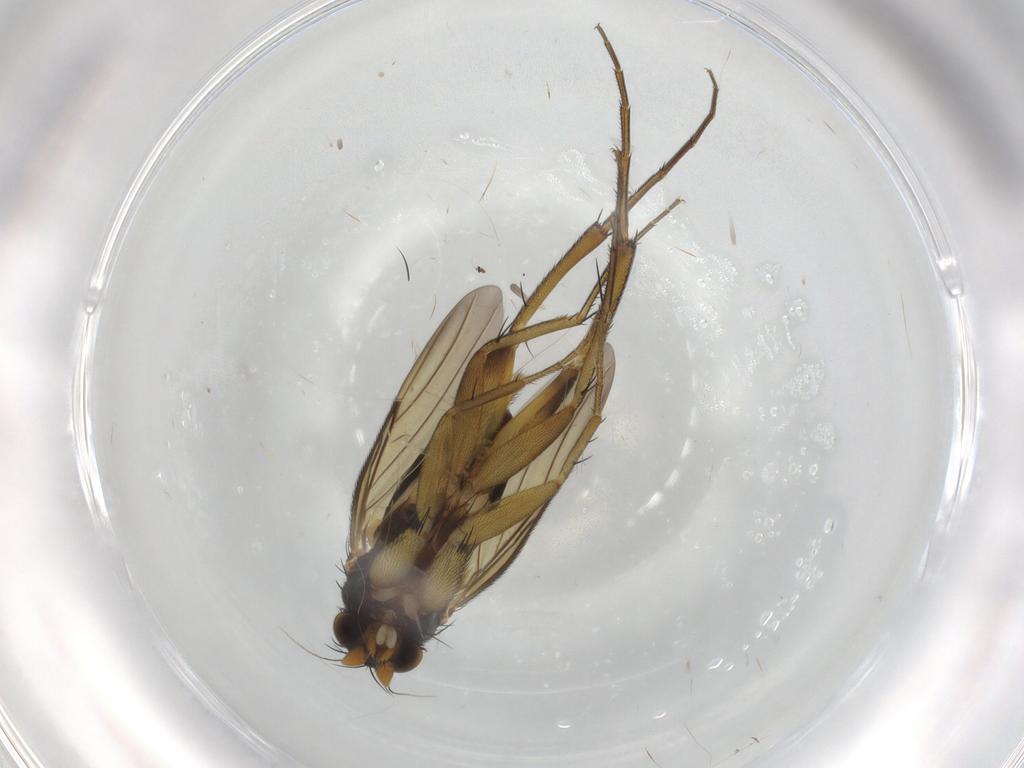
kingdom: Animalia
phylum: Arthropoda
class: Insecta
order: Diptera
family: Phoridae
